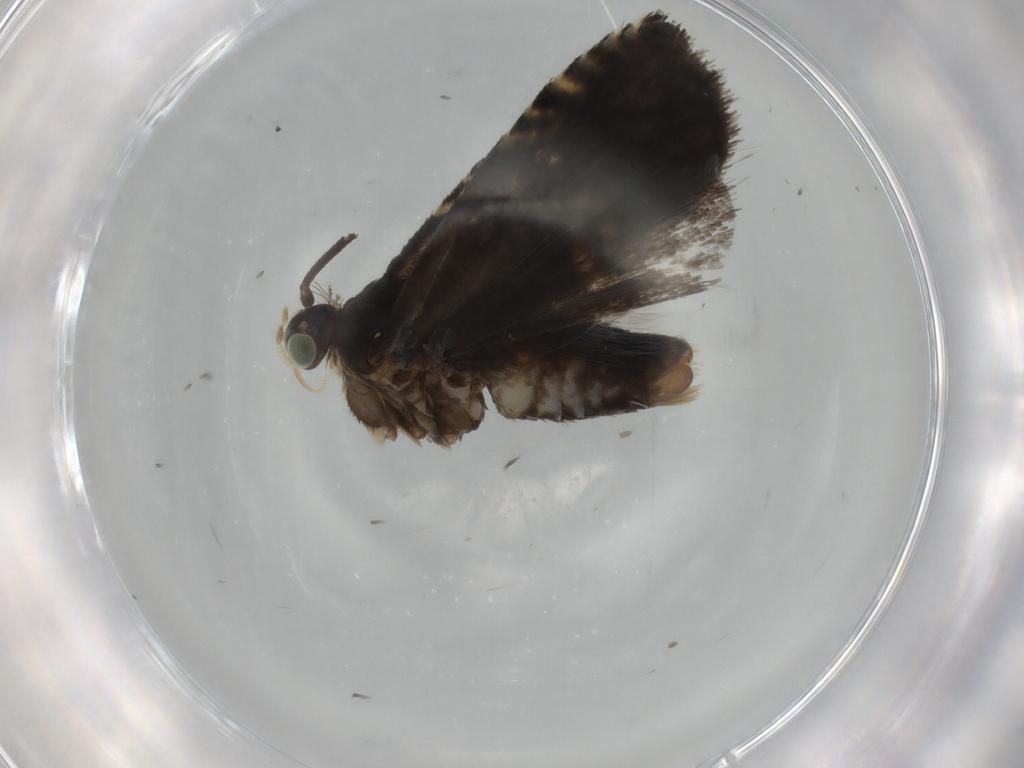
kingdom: Animalia
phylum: Arthropoda
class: Insecta
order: Lepidoptera
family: Tortricidae
